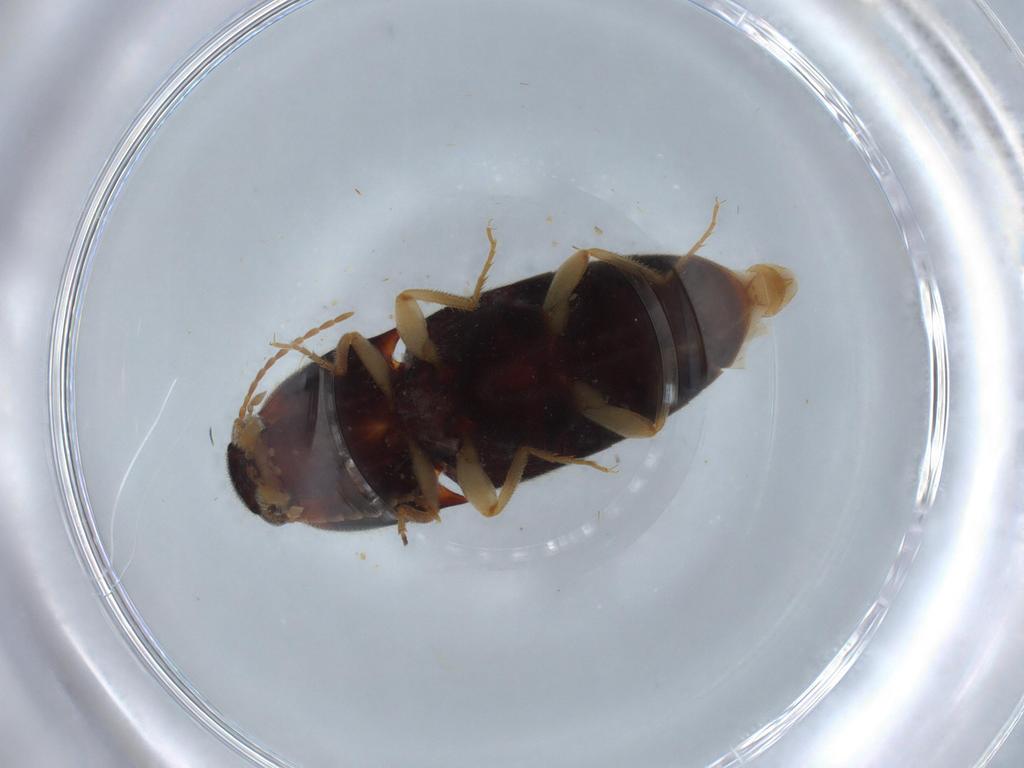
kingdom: Animalia
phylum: Arthropoda
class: Insecta
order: Coleoptera
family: Elateridae
